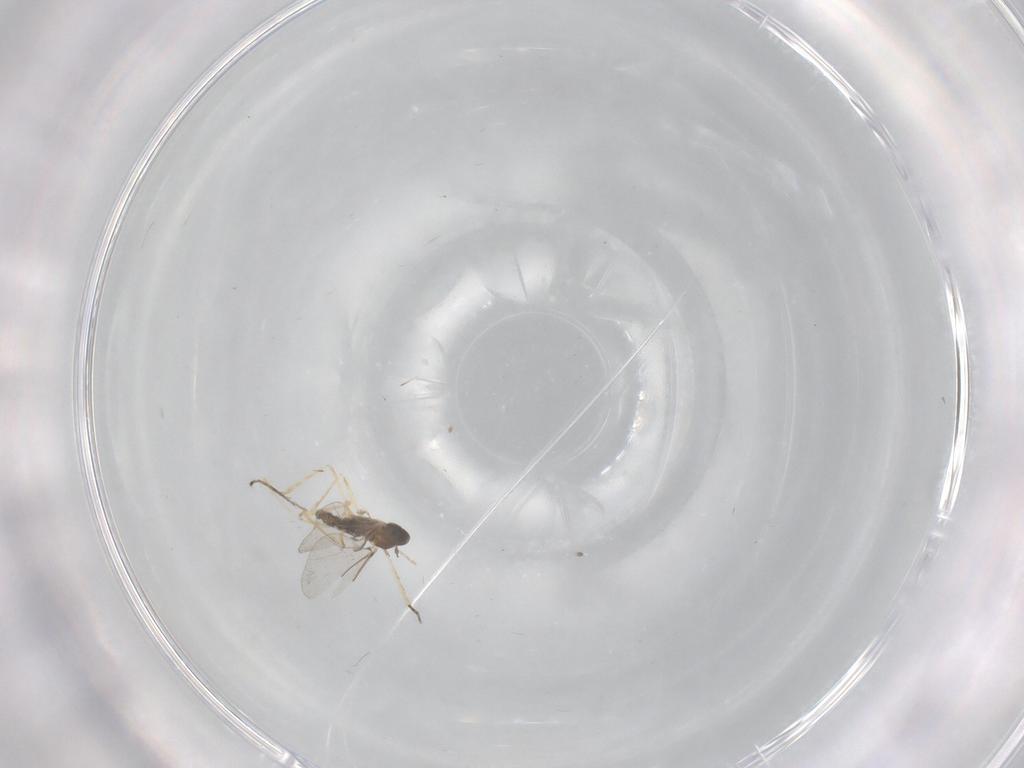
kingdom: Animalia
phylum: Arthropoda
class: Insecta
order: Diptera
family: Cecidomyiidae
